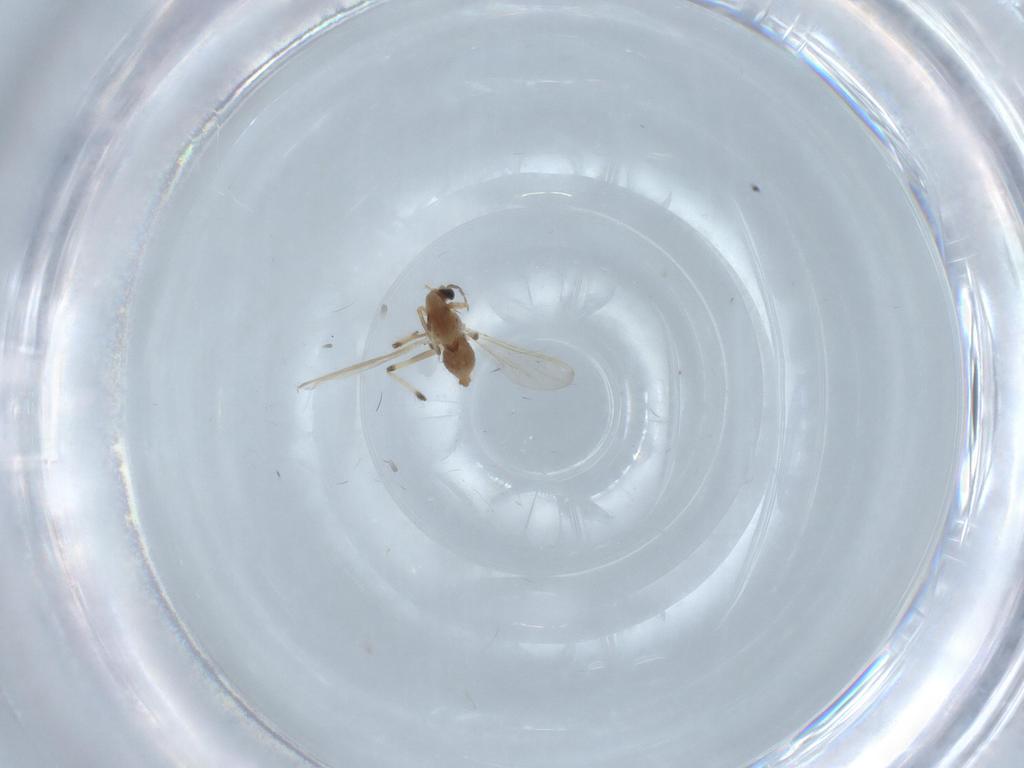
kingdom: Animalia
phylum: Arthropoda
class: Insecta
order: Diptera
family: Chironomidae
